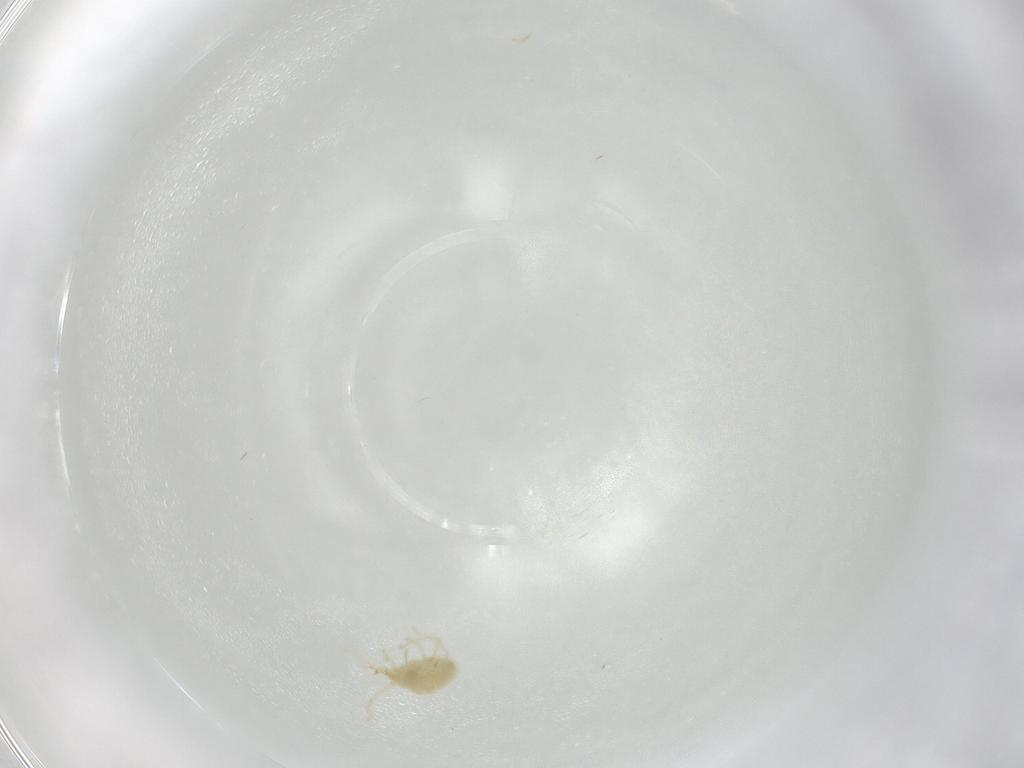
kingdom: Animalia
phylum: Arthropoda
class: Arachnida
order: Trombidiformes
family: Erythraeidae
